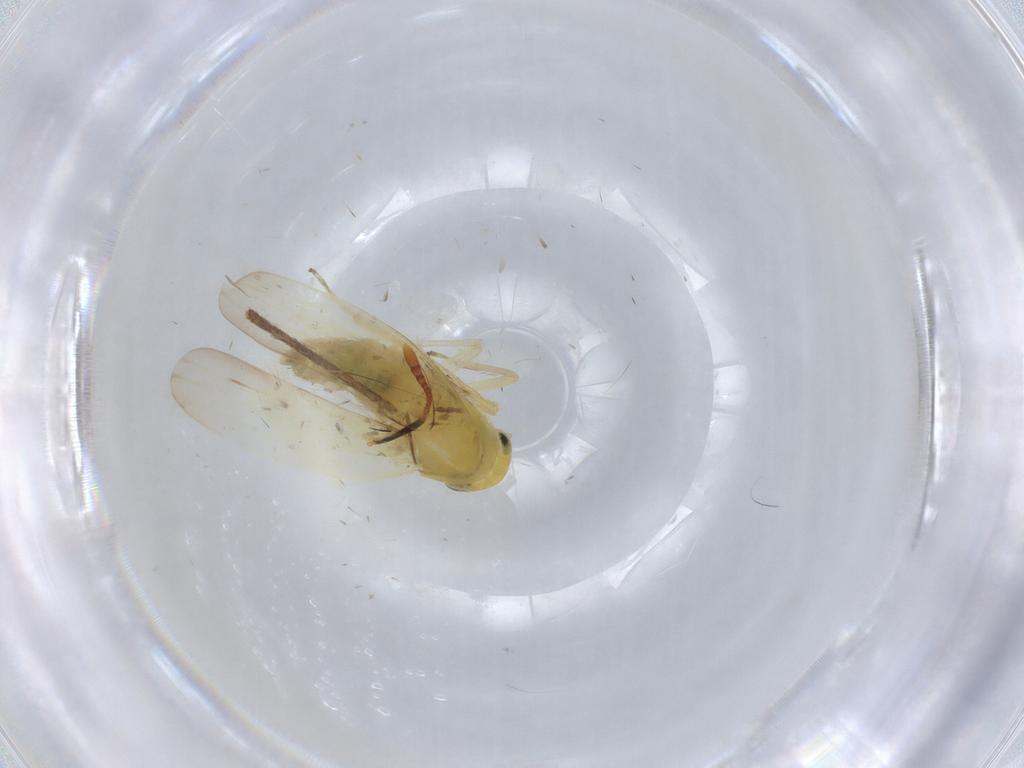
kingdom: Animalia
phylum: Arthropoda
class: Insecta
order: Hemiptera
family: Cicadellidae
